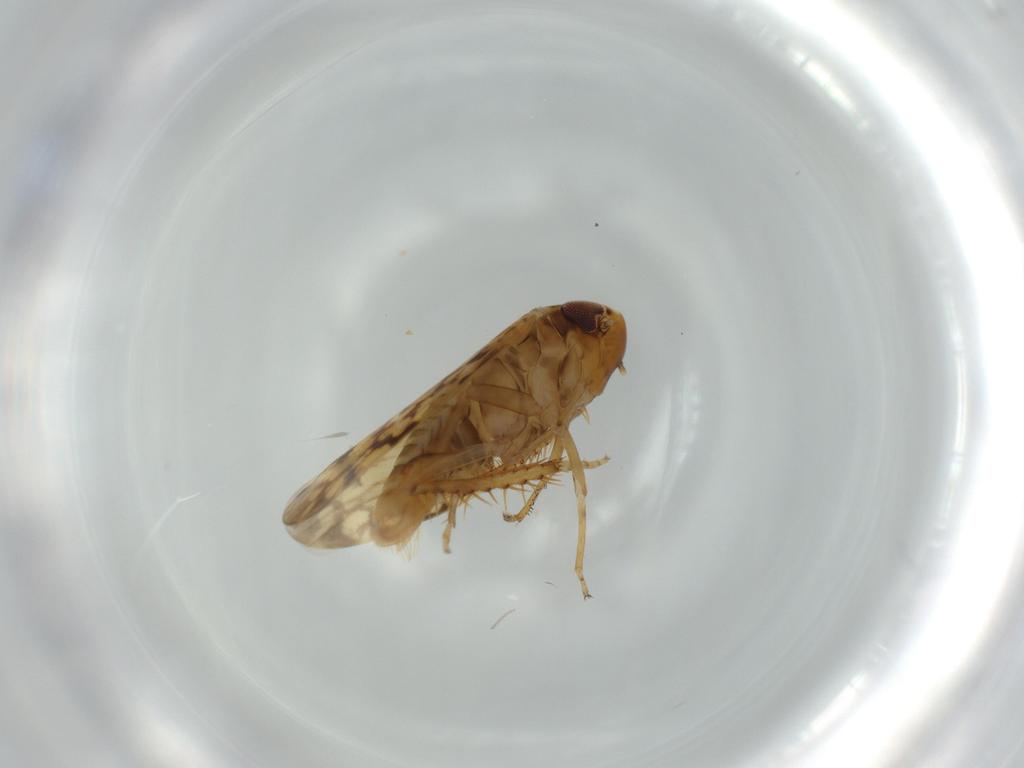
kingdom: Animalia
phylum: Arthropoda
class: Insecta
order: Hemiptera
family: Cicadellidae
